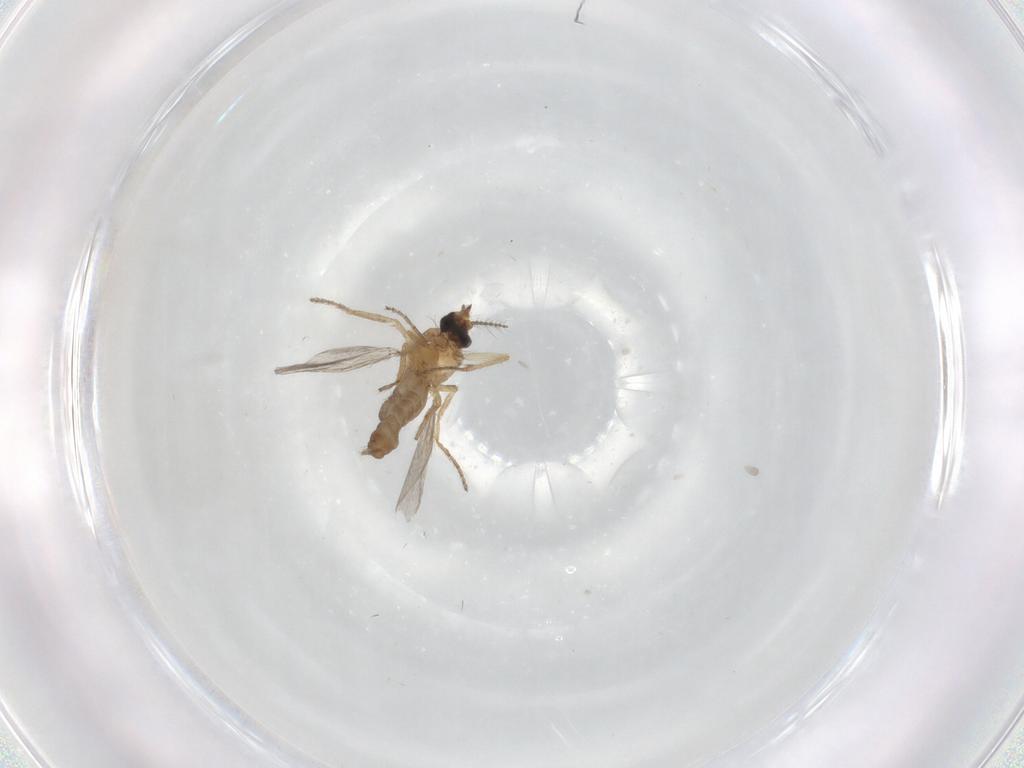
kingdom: Animalia
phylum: Arthropoda
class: Insecta
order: Diptera
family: Ceratopogonidae
